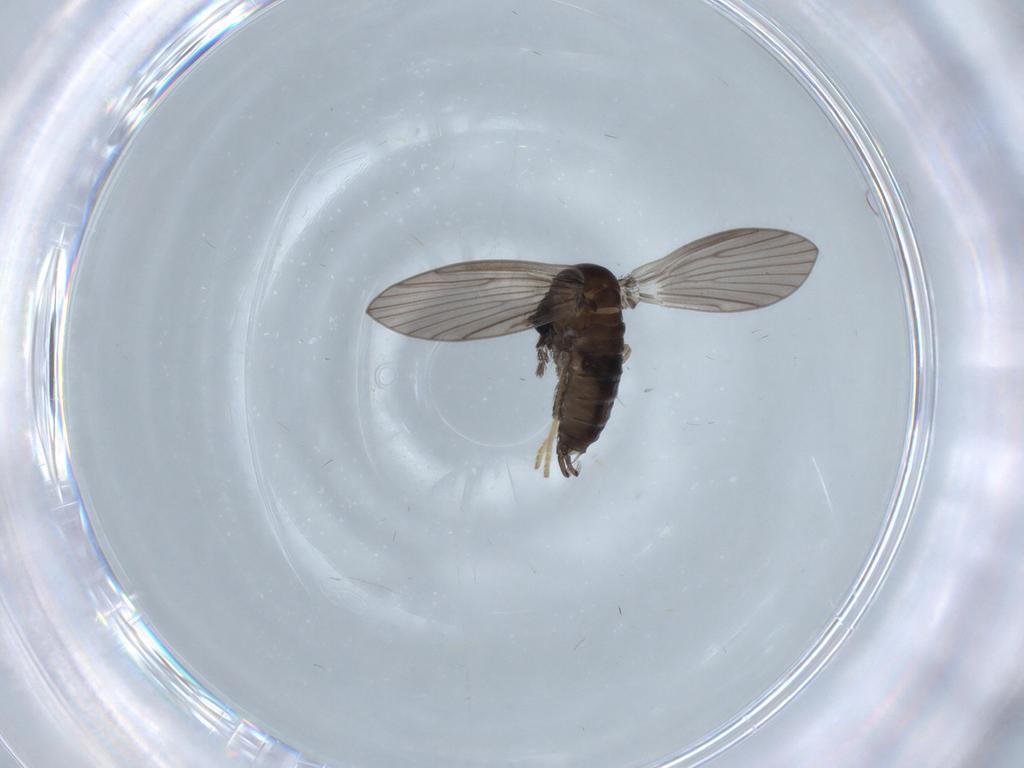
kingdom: Animalia
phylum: Arthropoda
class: Insecta
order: Diptera
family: Psychodidae
